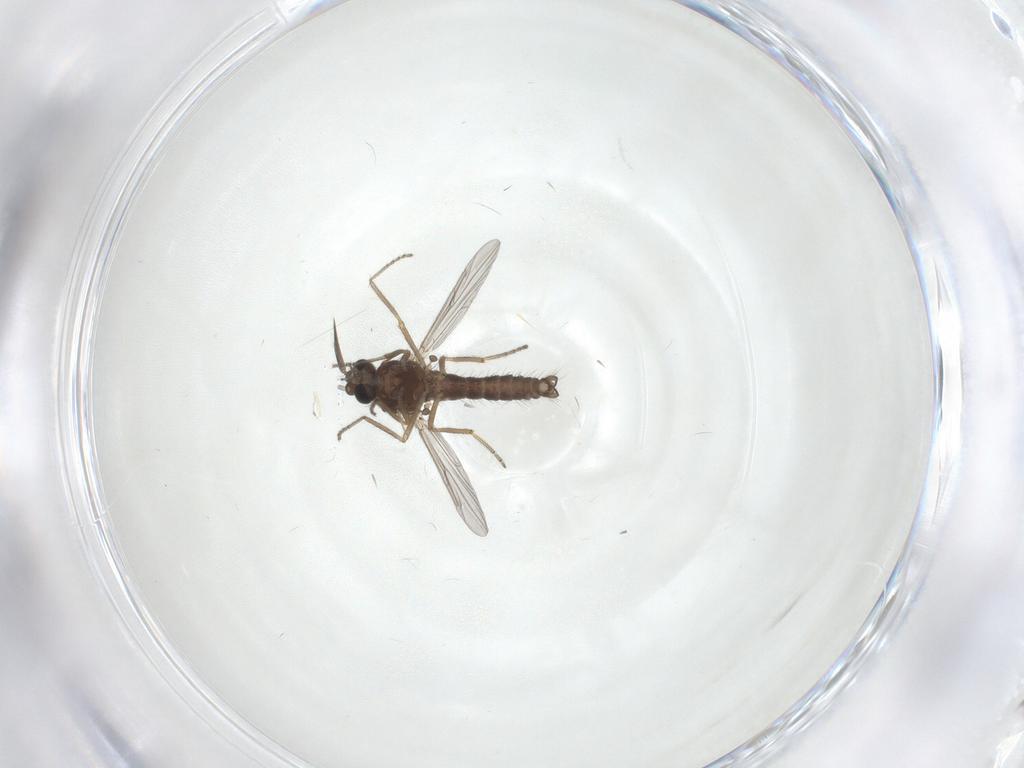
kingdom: Animalia
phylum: Arthropoda
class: Insecta
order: Diptera
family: Ceratopogonidae
